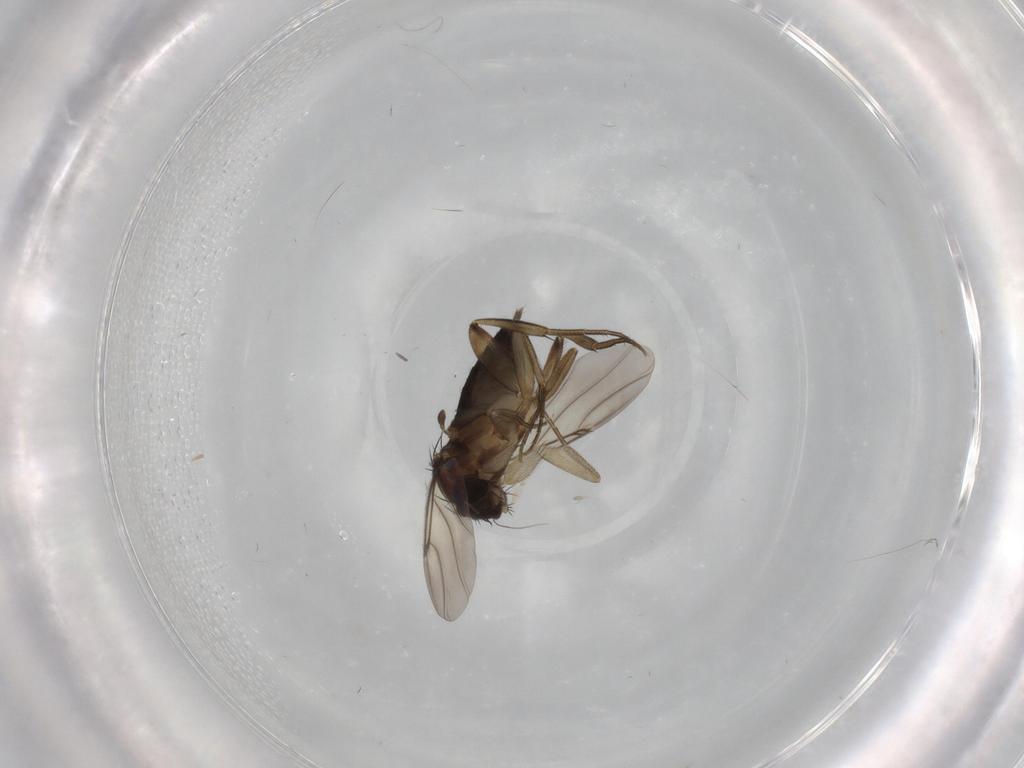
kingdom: Animalia
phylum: Arthropoda
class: Insecta
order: Diptera
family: Phoridae
